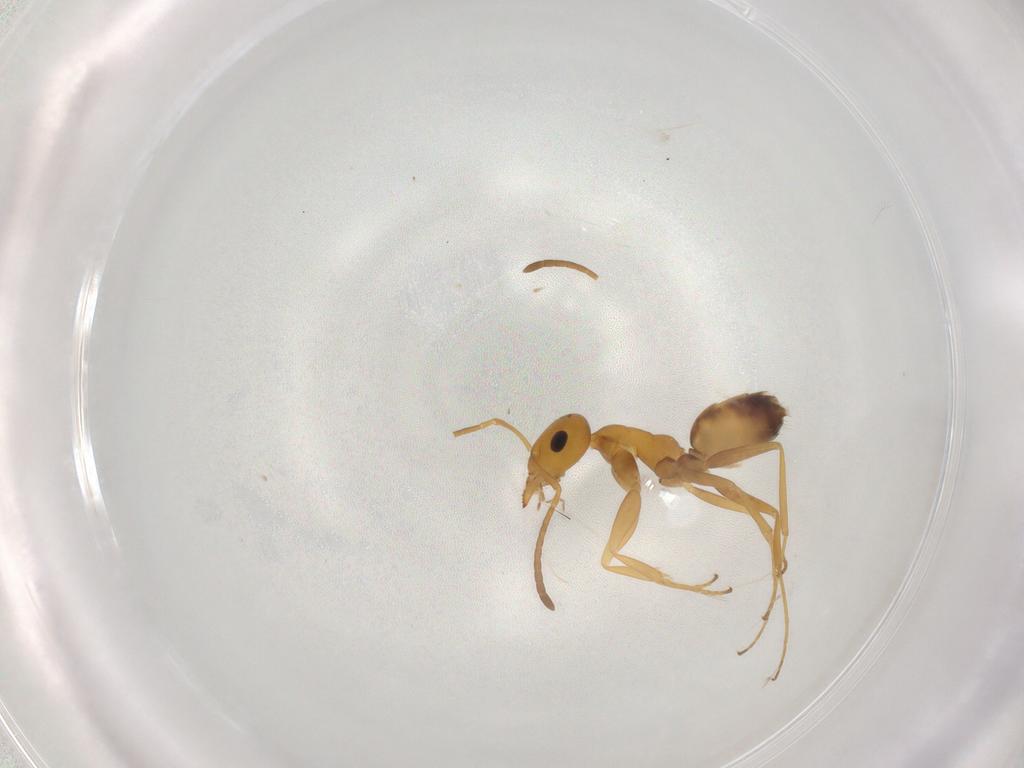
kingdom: Animalia
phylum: Arthropoda
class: Insecta
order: Hymenoptera
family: Formicidae
